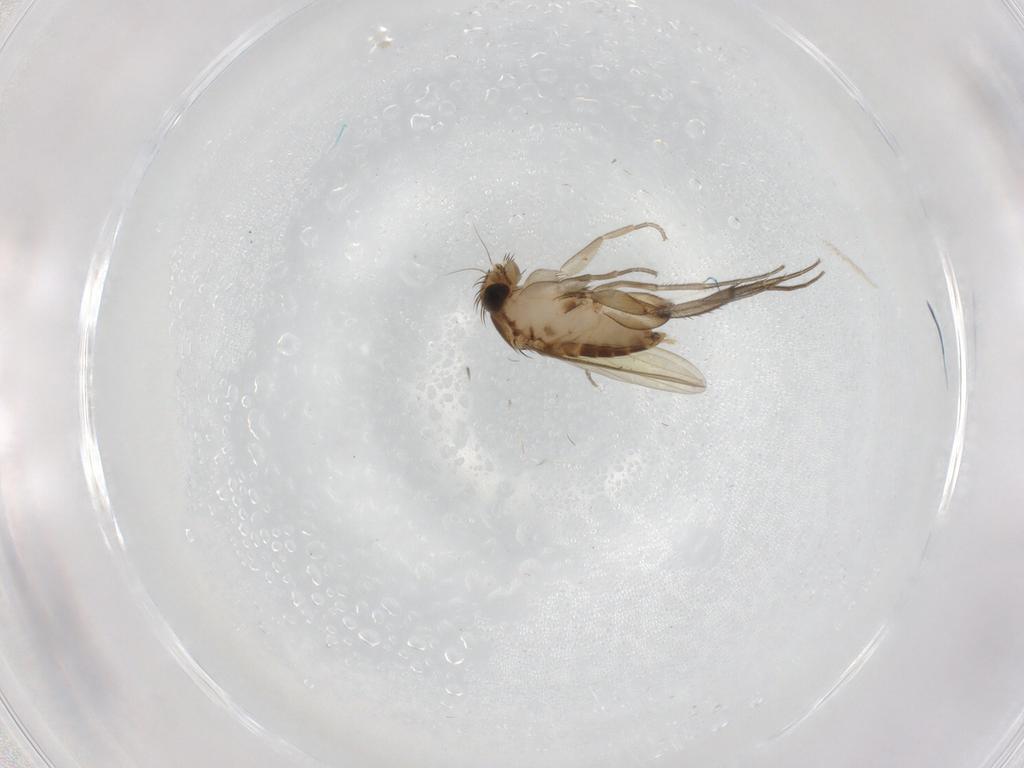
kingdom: Animalia
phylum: Arthropoda
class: Insecta
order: Diptera
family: Phoridae
